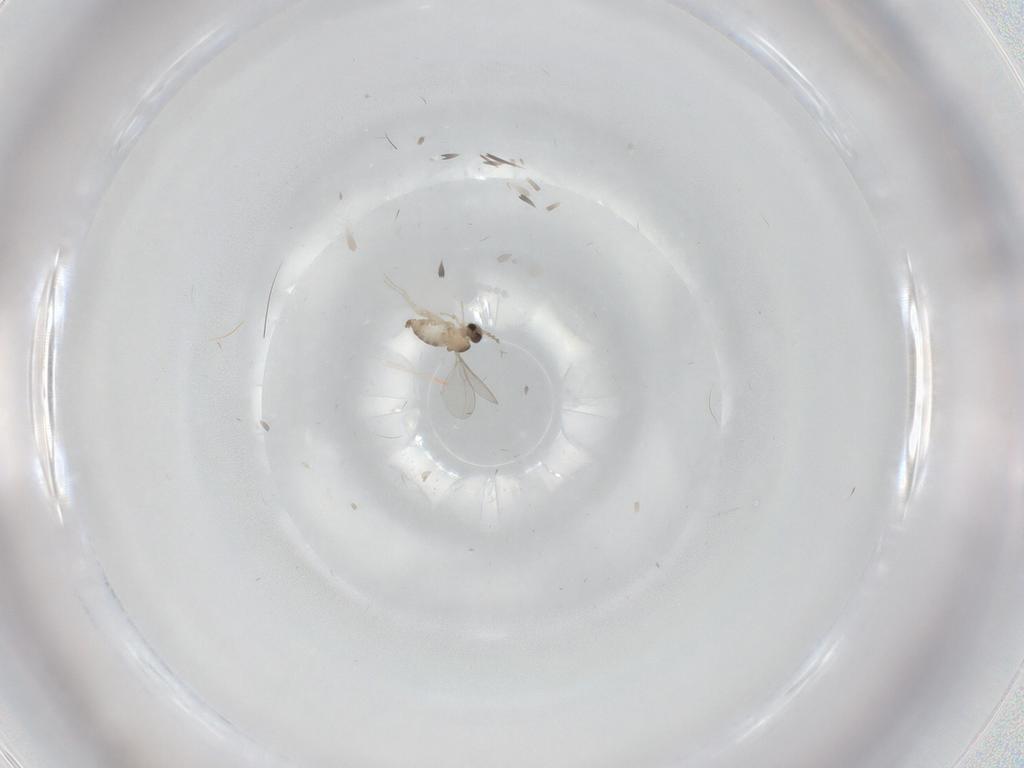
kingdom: Animalia
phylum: Arthropoda
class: Insecta
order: Diptera
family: Cecidomyiidae
